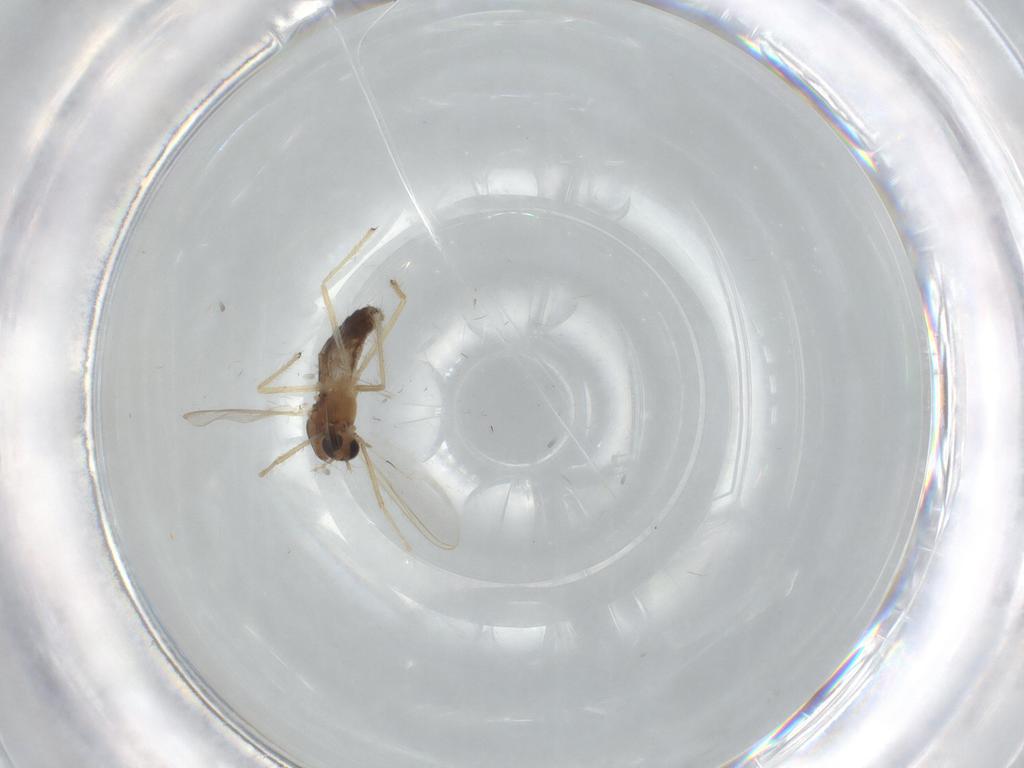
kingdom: Animalia
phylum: Arthropoda
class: Insecta
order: Diptera
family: Chironomidae
